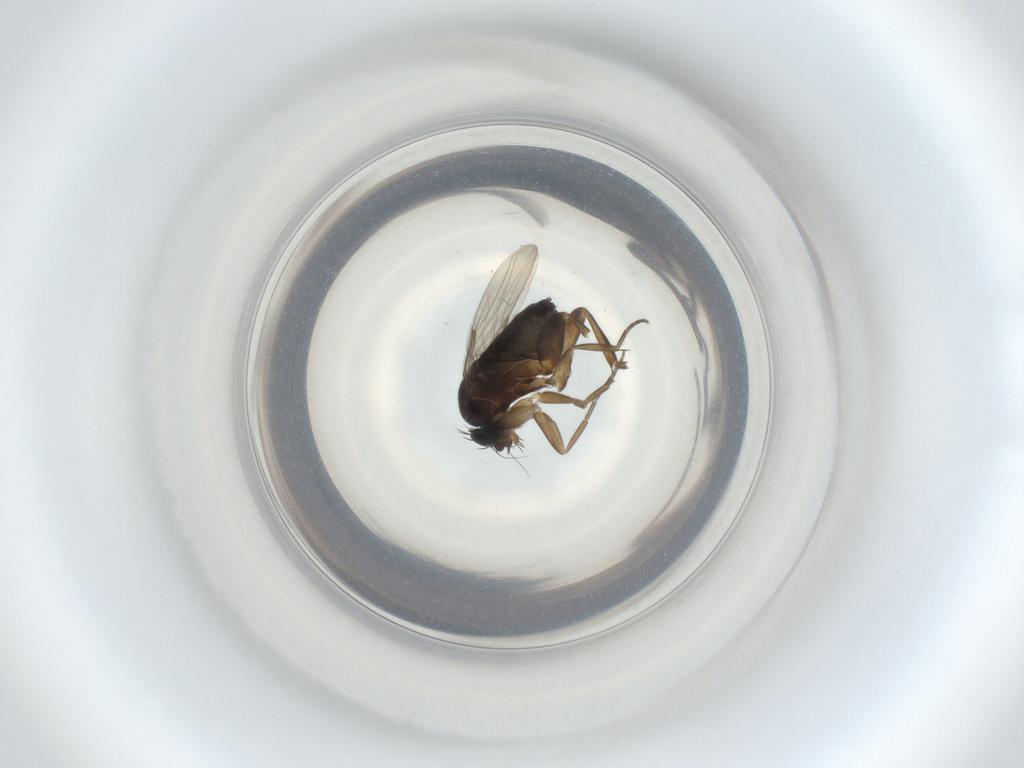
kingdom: Animalia
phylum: Arthropoda
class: Insecta
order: Diptera
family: Phoridae
